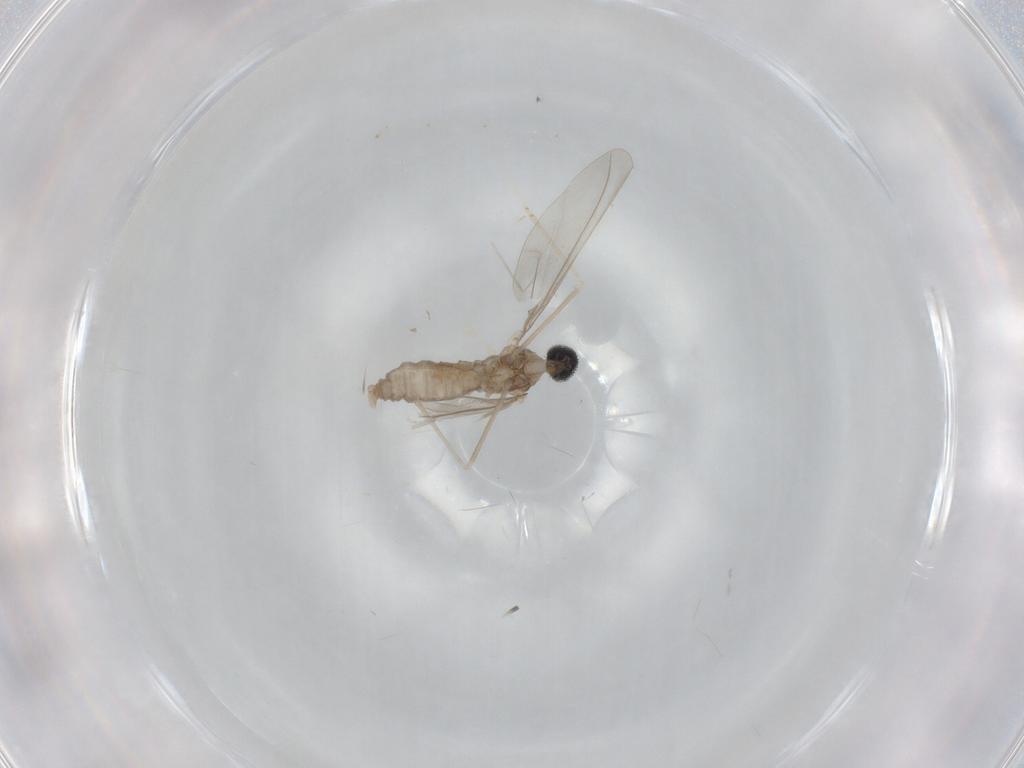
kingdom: Animalia
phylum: Arthropoda
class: Insecta
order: Diptera
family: Cecidomyiidae
